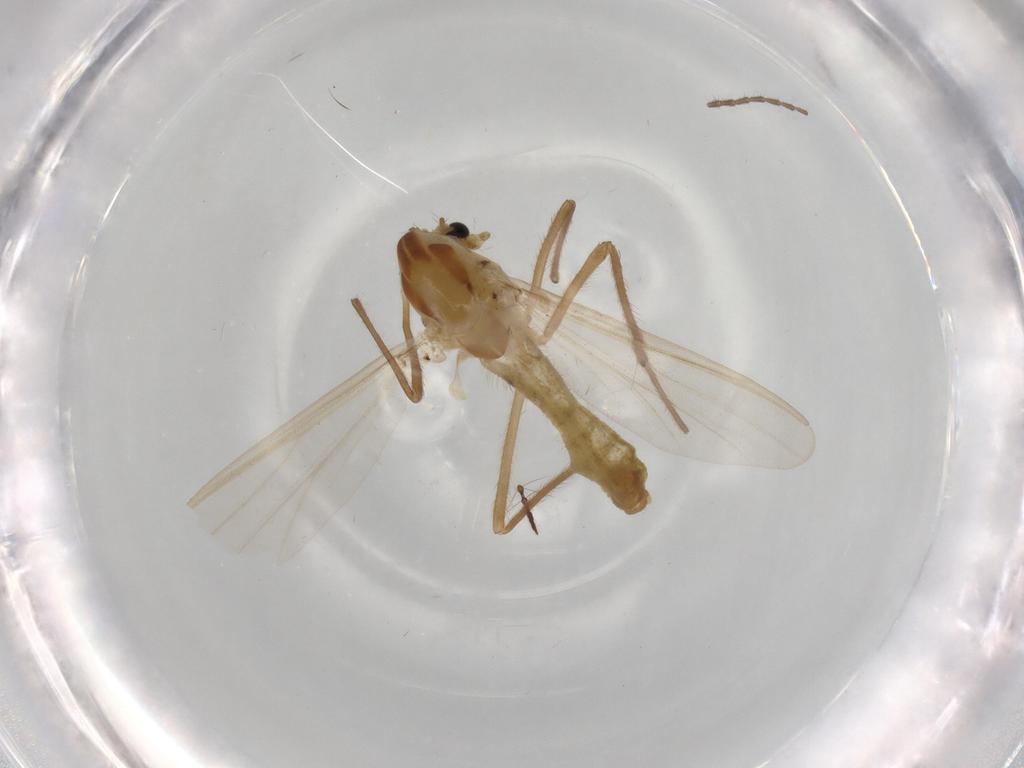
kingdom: Animalia
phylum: Arthropoda
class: Insecta
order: Diptera
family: Chironomidae
